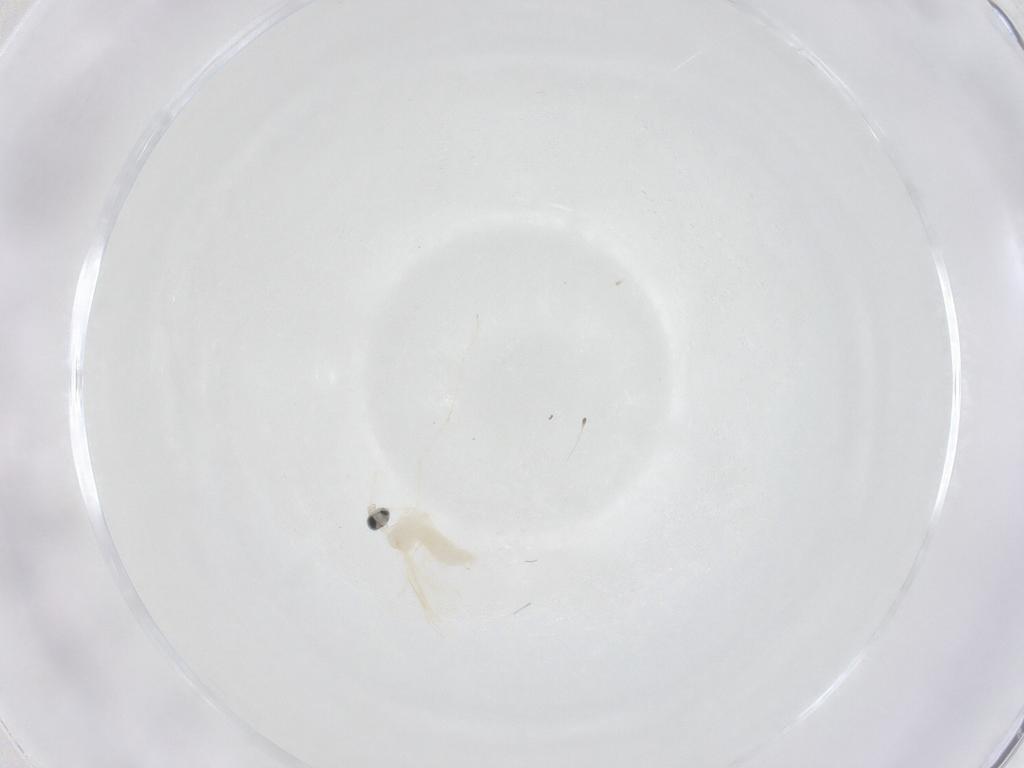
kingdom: Animalia
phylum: Arthropoda
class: Insecta
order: Diptera
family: Cecidomyiidae
